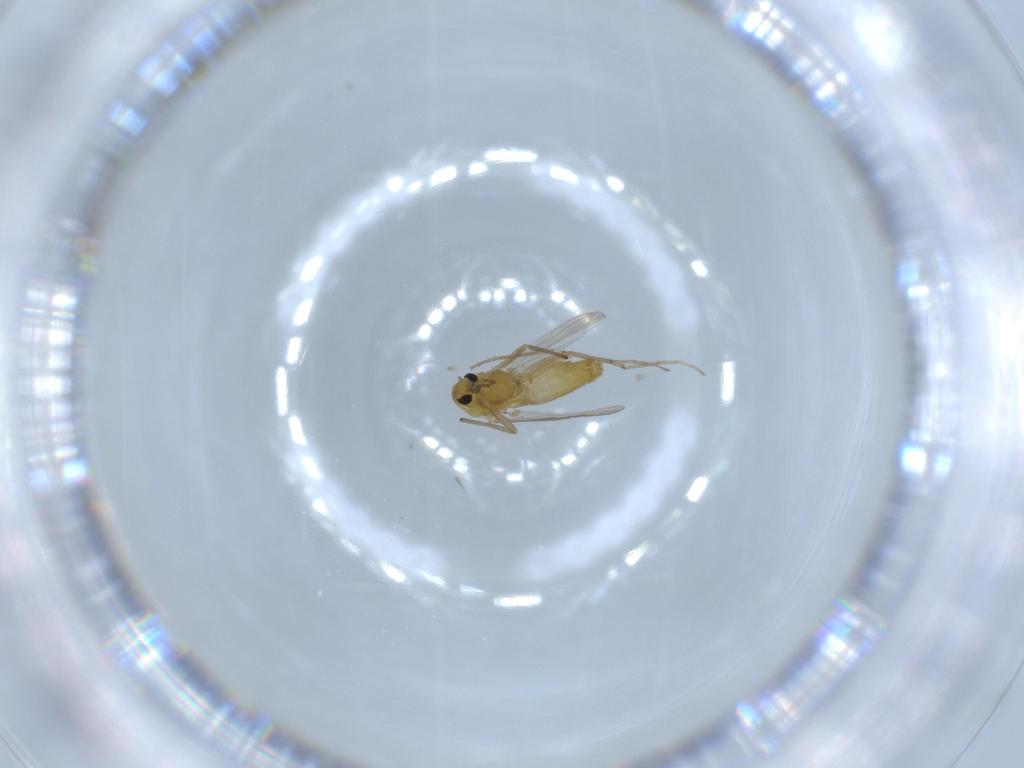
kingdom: Animalia
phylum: Arthropoda
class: Insecta
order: Diptera
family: Chironomidae
